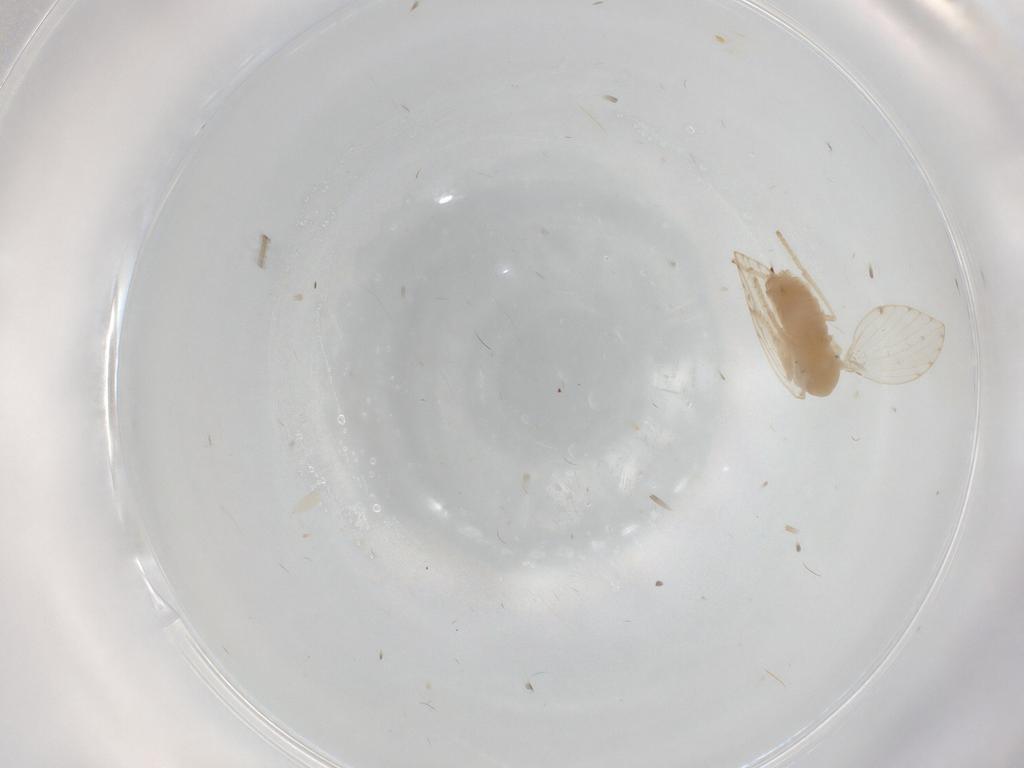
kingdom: Animalia
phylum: Arthropoda
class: Insecta
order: Diptera
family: Chironomidae
